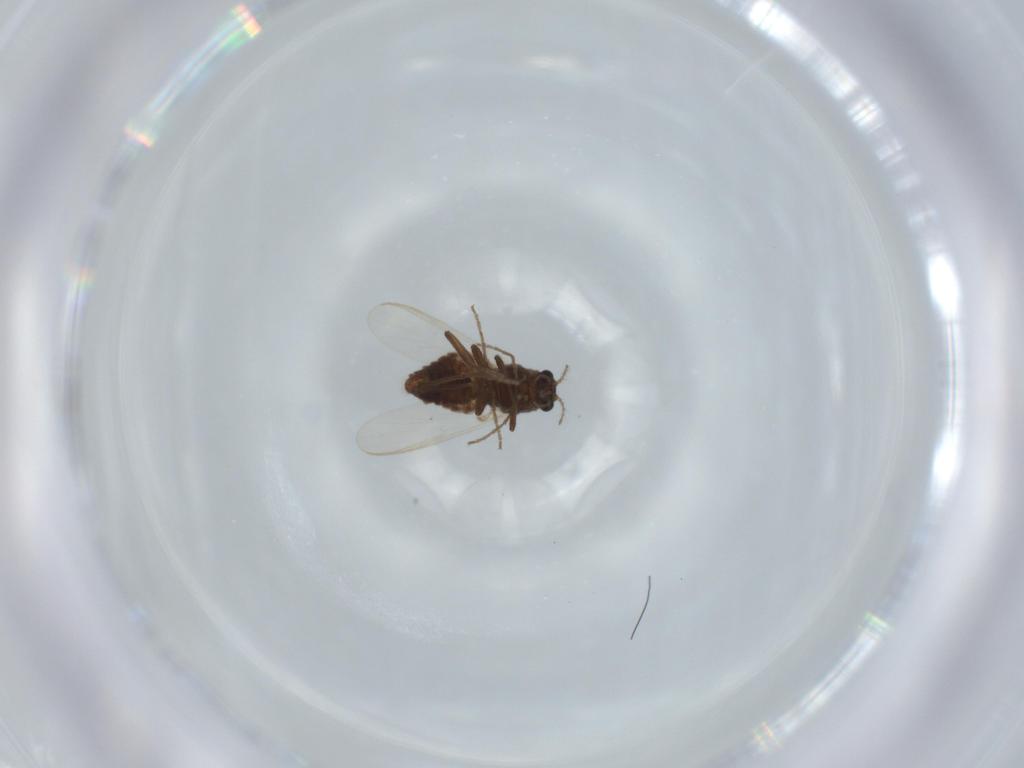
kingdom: Animalia
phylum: Arthropoda
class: Insecta
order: Diptera
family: Chironomidae
